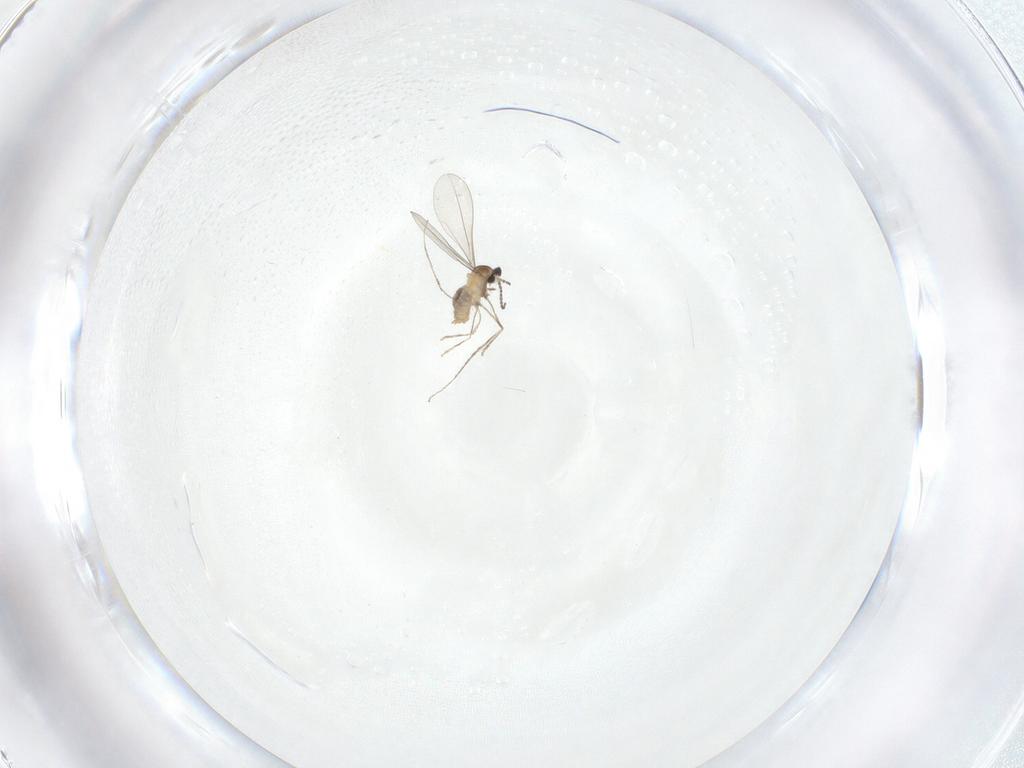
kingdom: Animalia
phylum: Arthropoda
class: Insecta
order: Diptera
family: Cecidomyiidae
